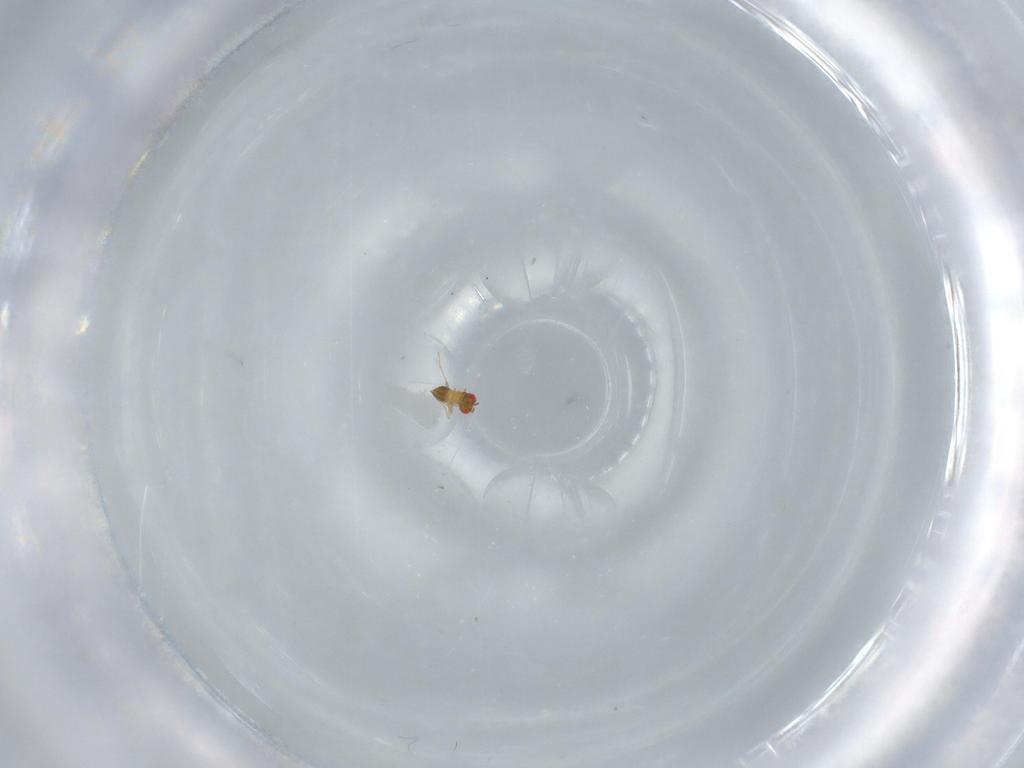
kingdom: Animalia
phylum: Arthropoda
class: Insecta
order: Hymenoptera
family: Trichogrammatidae
